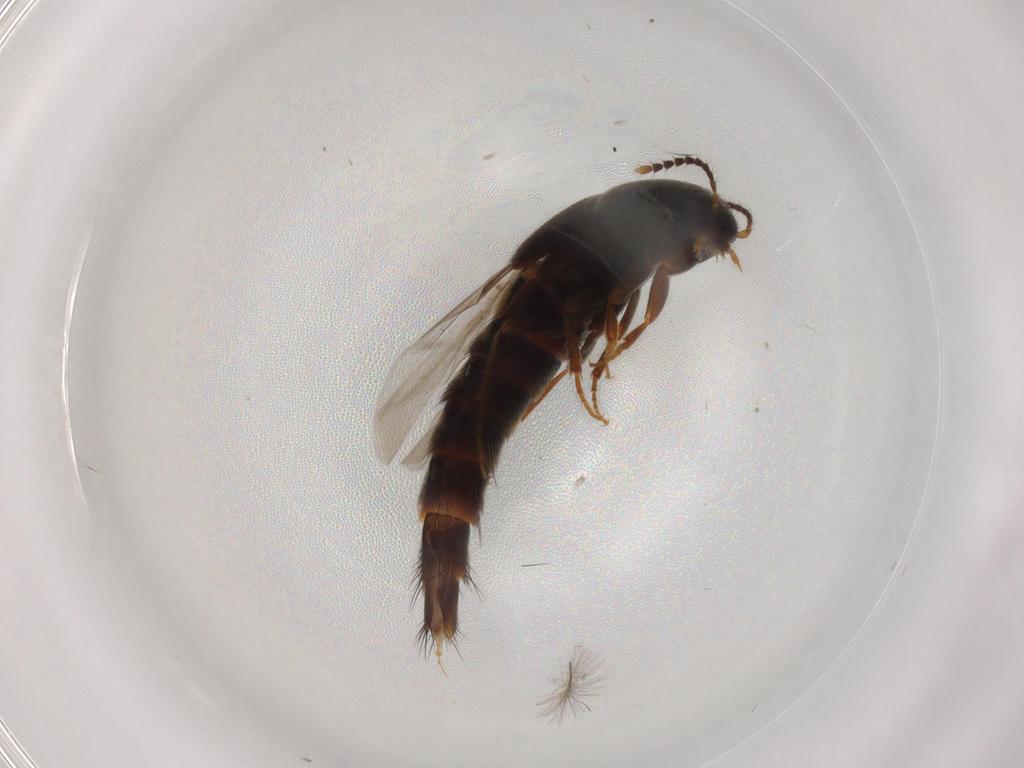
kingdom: Animalia
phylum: Arthropoda
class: Insecta
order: Coleoptera
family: Staphylinidae
